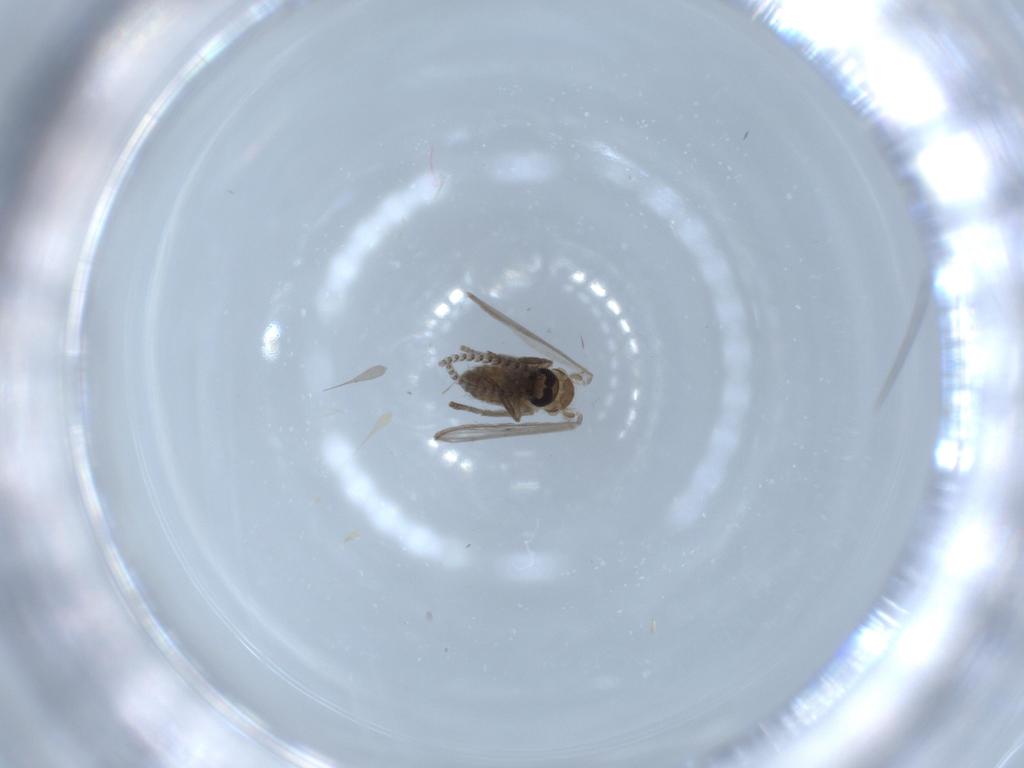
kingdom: Animalia
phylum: Arthropoda
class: Insecta
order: Diptera
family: Psychodidae
